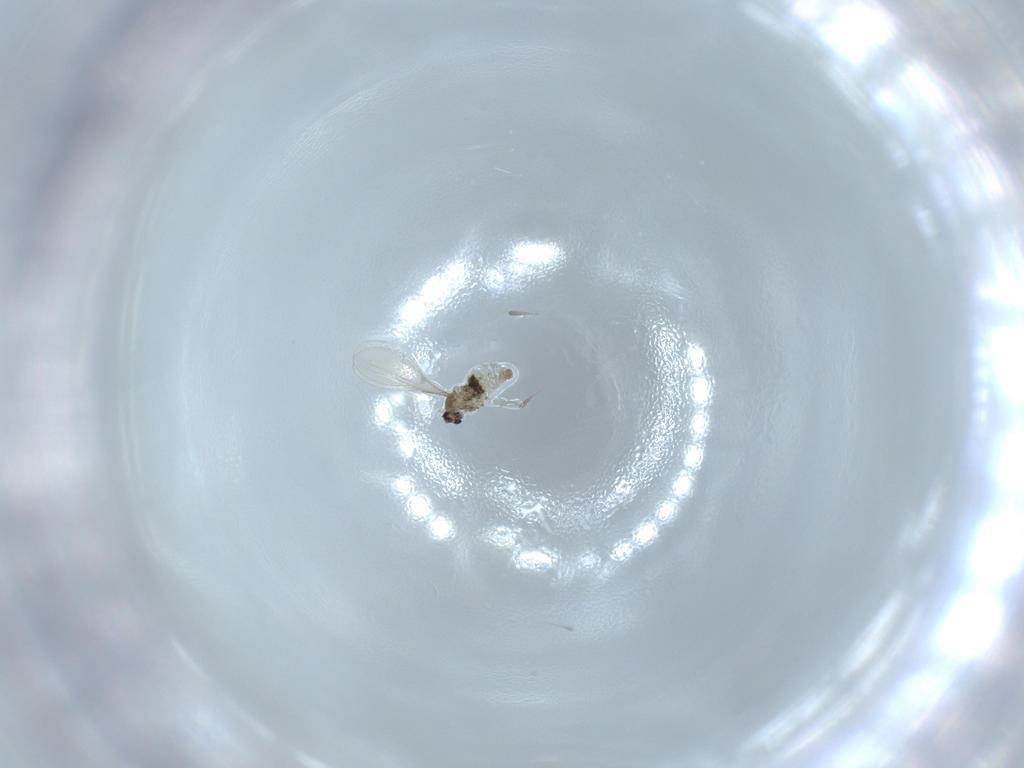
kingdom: Animalia
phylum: Arthropoda
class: Insecta
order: Diptera
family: Cecidomyiidae
